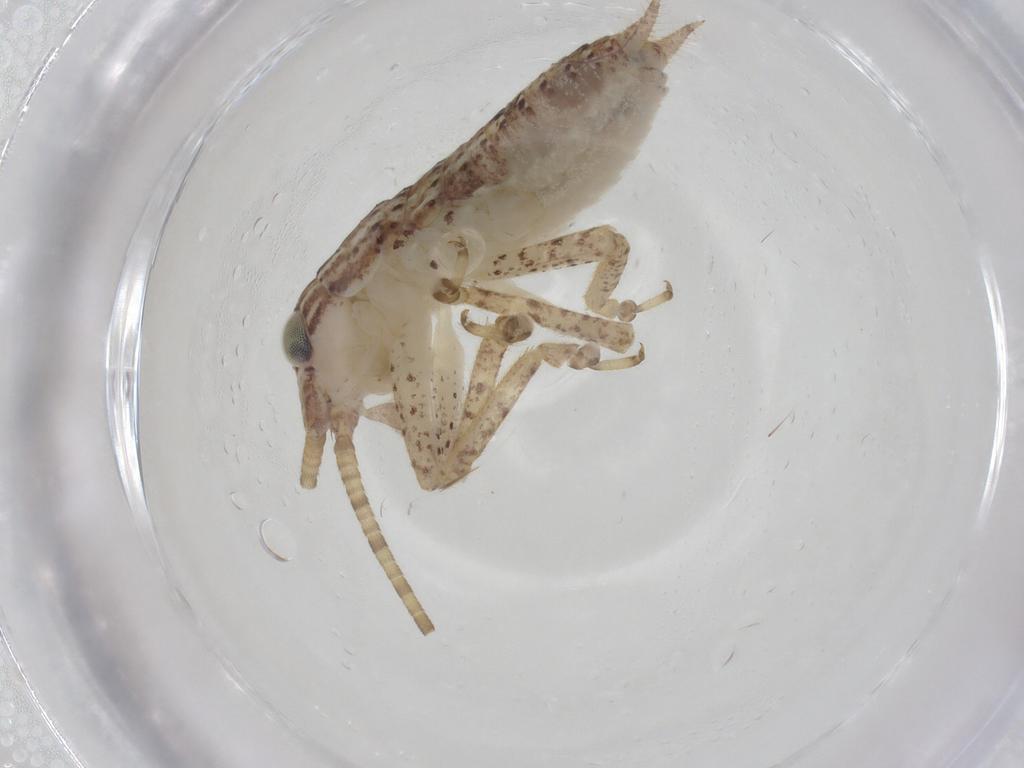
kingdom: Animalia
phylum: Arthropoda
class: Insecta
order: Orthoptera
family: Gryllidae
